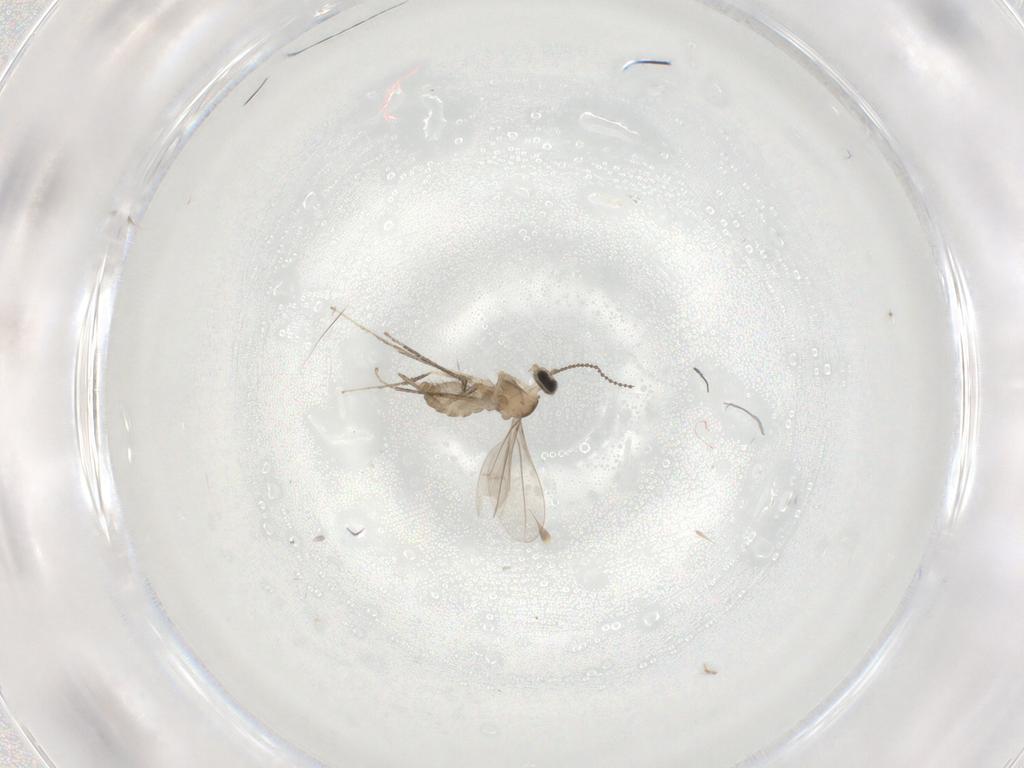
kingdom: Animalia
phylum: Arthropoda
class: Insecta
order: Diptera
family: Cecidomyiidae
